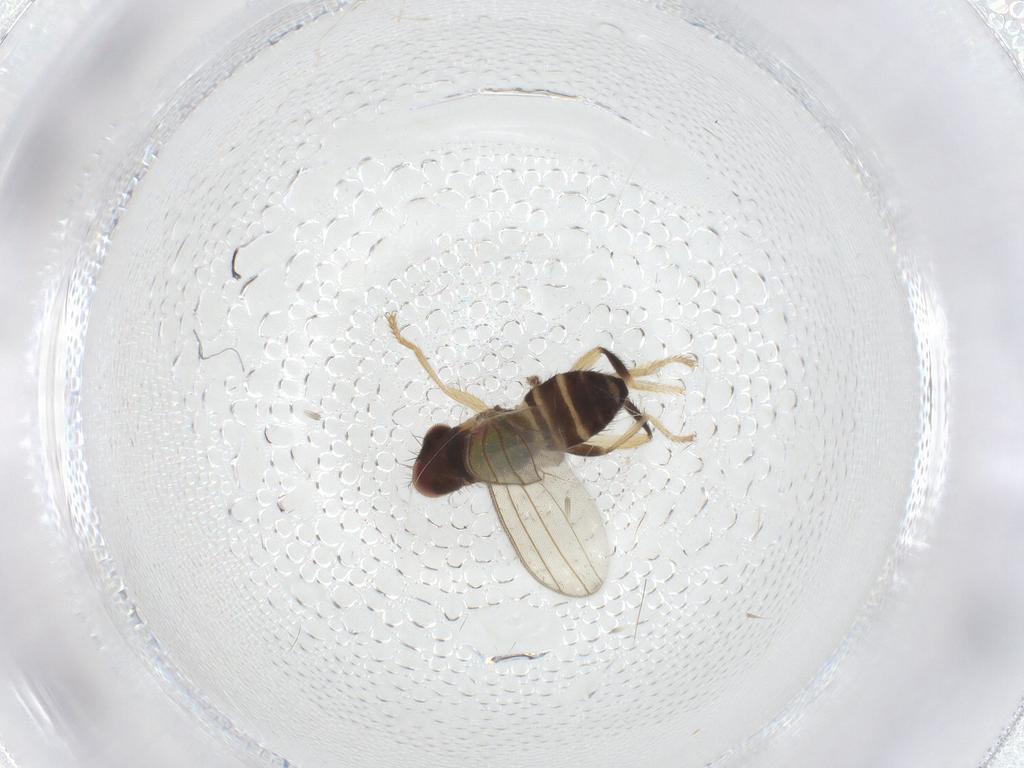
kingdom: Animalia
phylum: Arthropoda
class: Insecta
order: Diptera
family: Periscelididae
